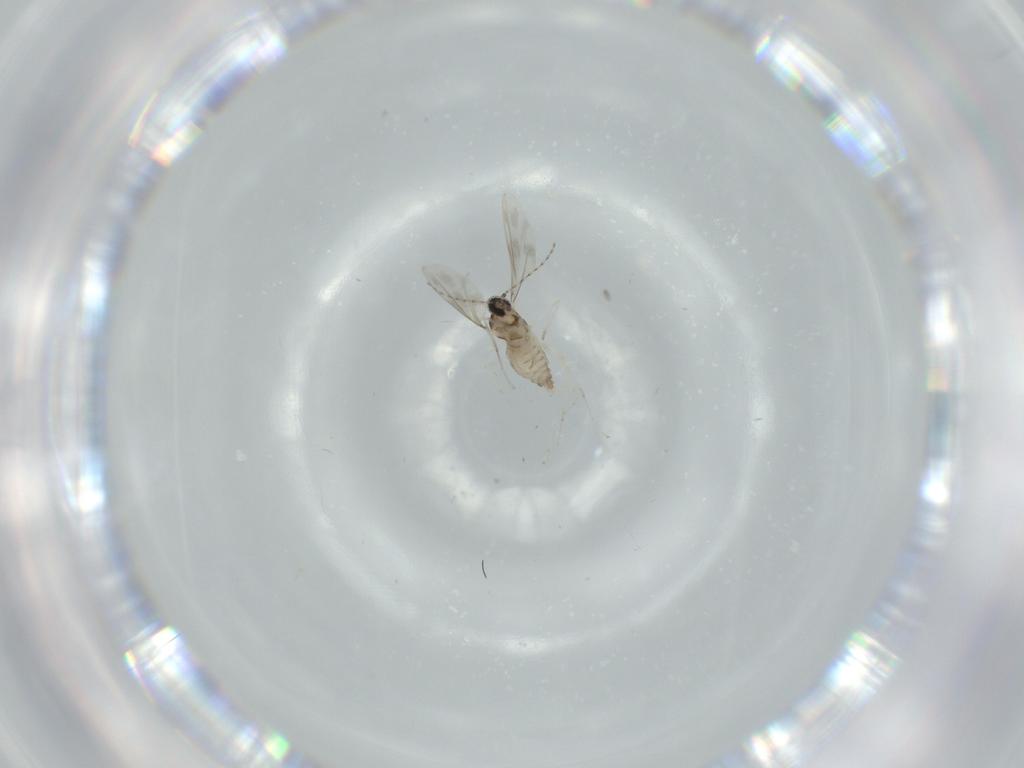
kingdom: Animalia
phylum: Arthropoda
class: Insecta
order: Diptera
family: Cecidomyiidae
